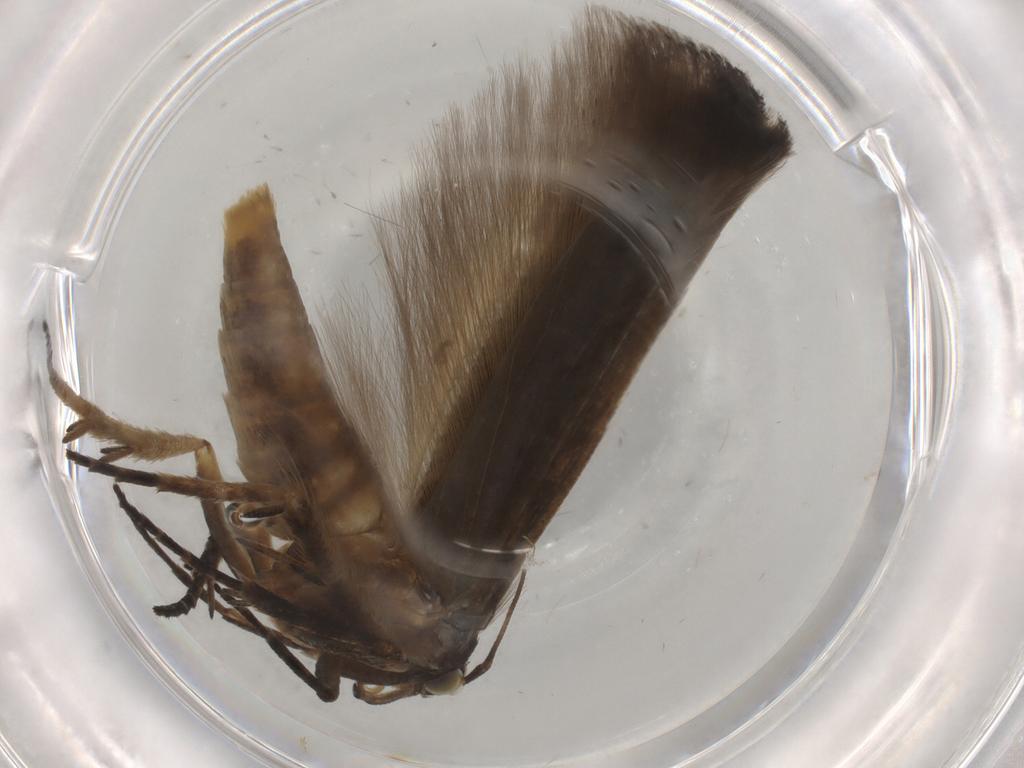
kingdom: Animalia
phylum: Arthropoda
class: Insecta
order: Lepidoptera
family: Gelechiidae
